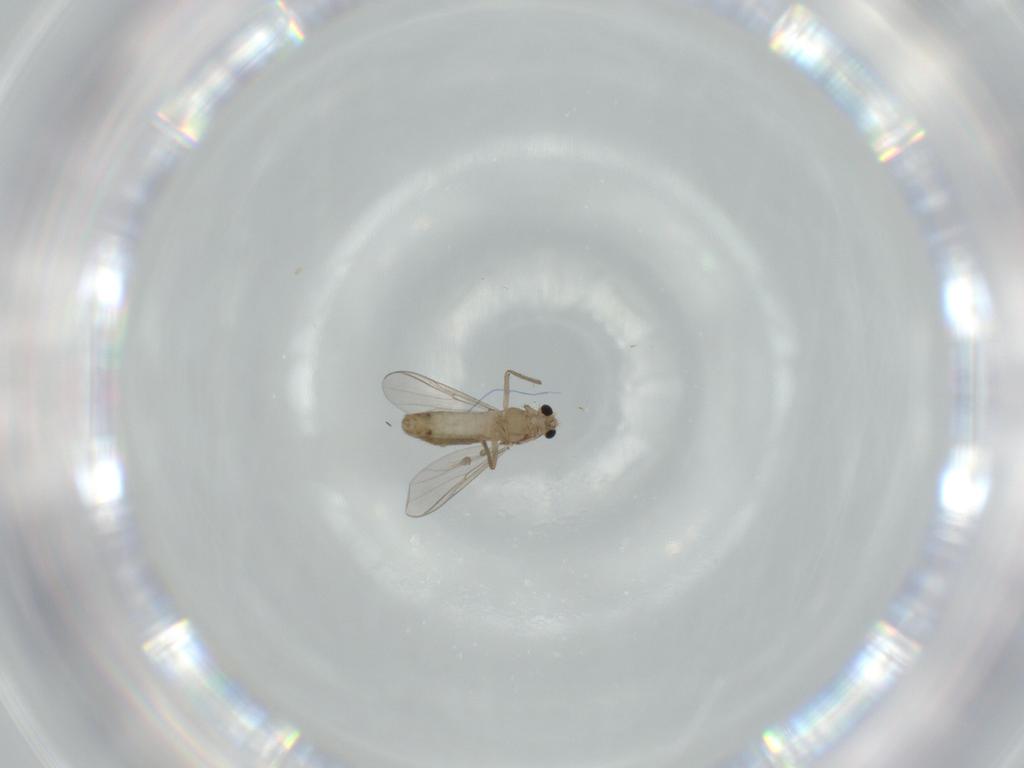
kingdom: Animalia
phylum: Arthropoda
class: Insecta
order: Diptera
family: Chironomidae
